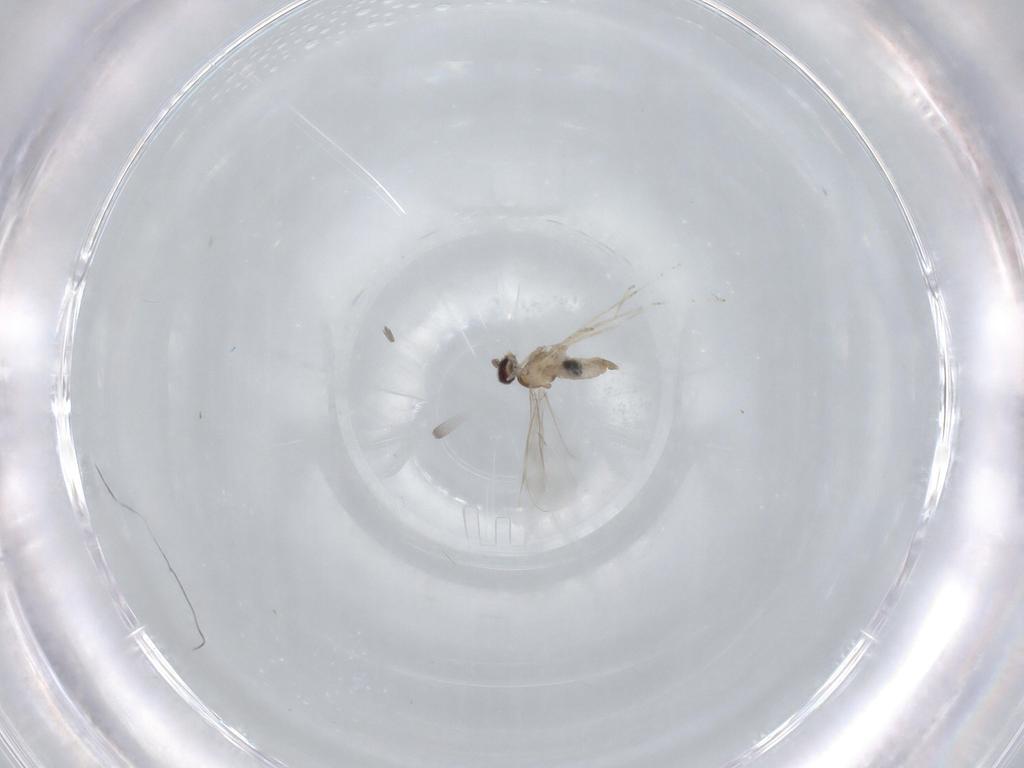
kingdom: Animalia
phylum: Arthropoda
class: Insecta
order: Diptera
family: Cecidomyiidae
